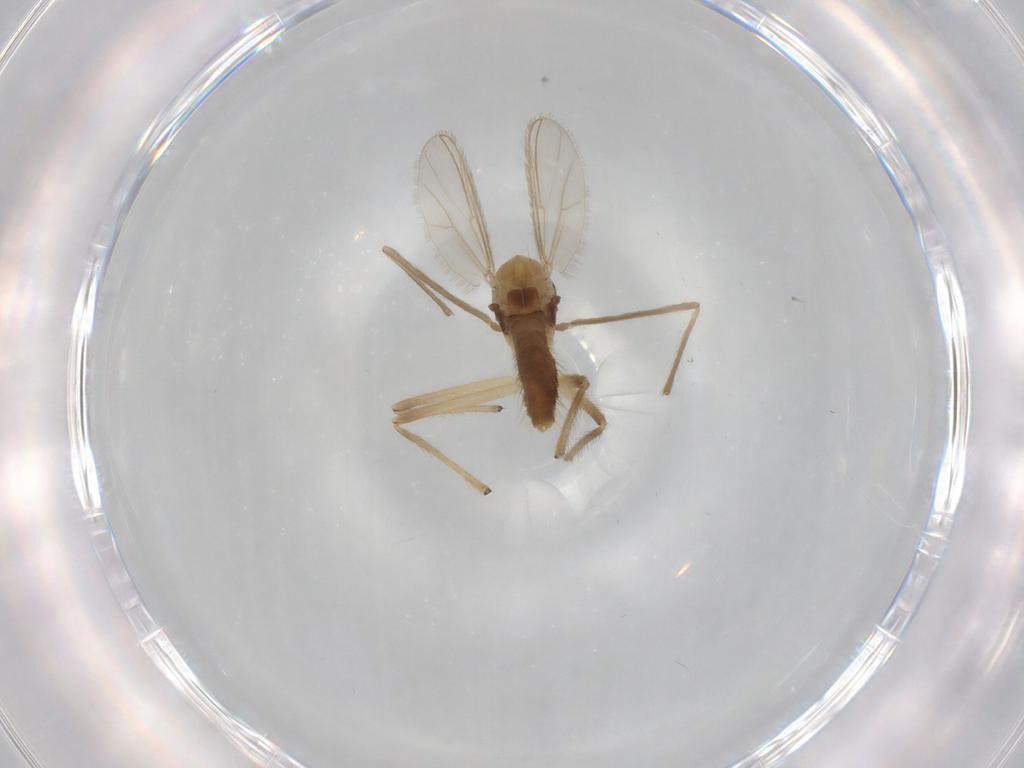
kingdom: Animalia
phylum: Arthropoda
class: Insecta
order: Diptera
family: Chironomidae
